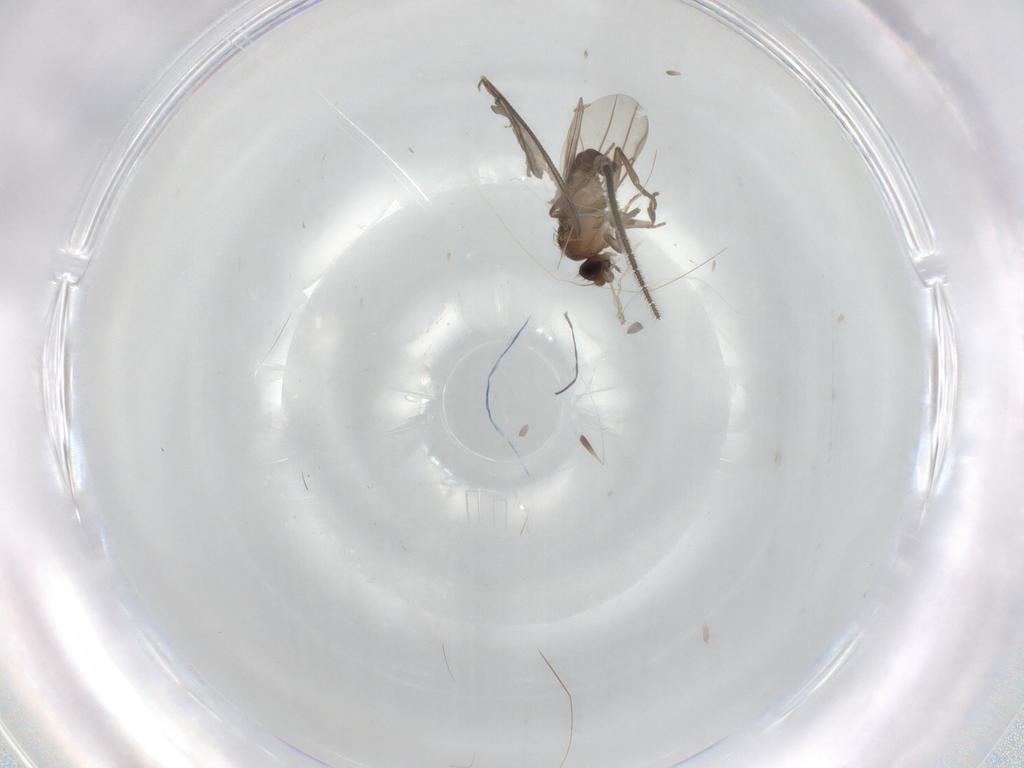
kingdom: Animalia
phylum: Arthropoda
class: Insecta
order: Diptera
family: Sciaridae
